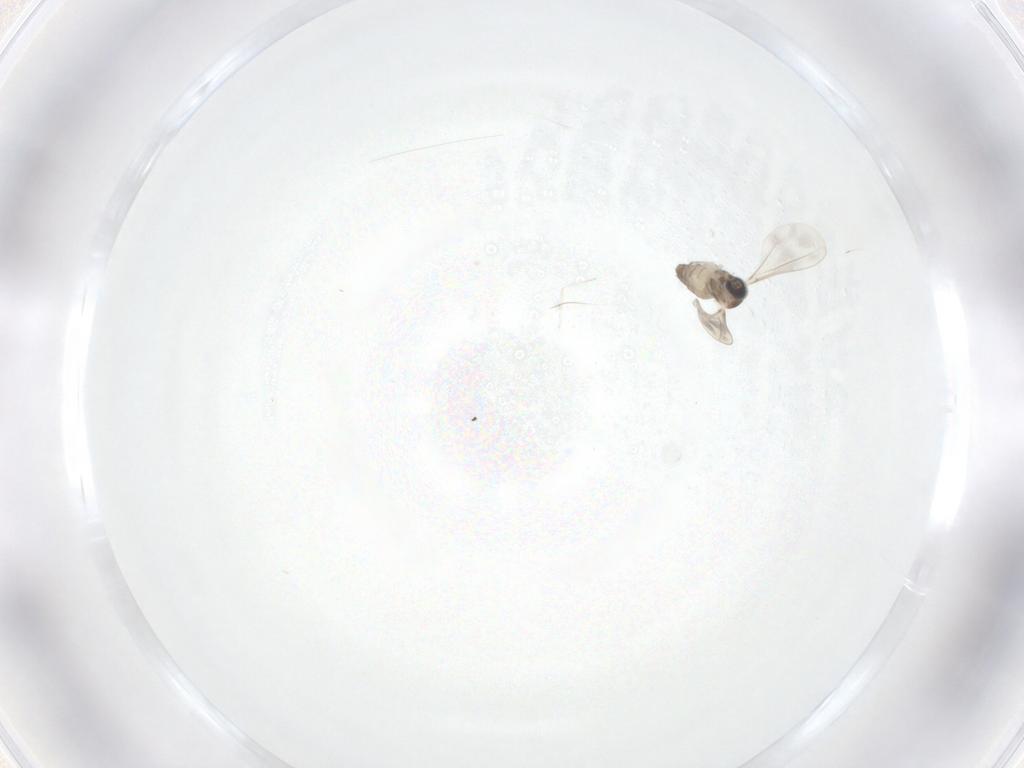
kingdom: Animalia
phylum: Arthropoda
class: Insecta
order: Diptera
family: Cecidomyiidae
